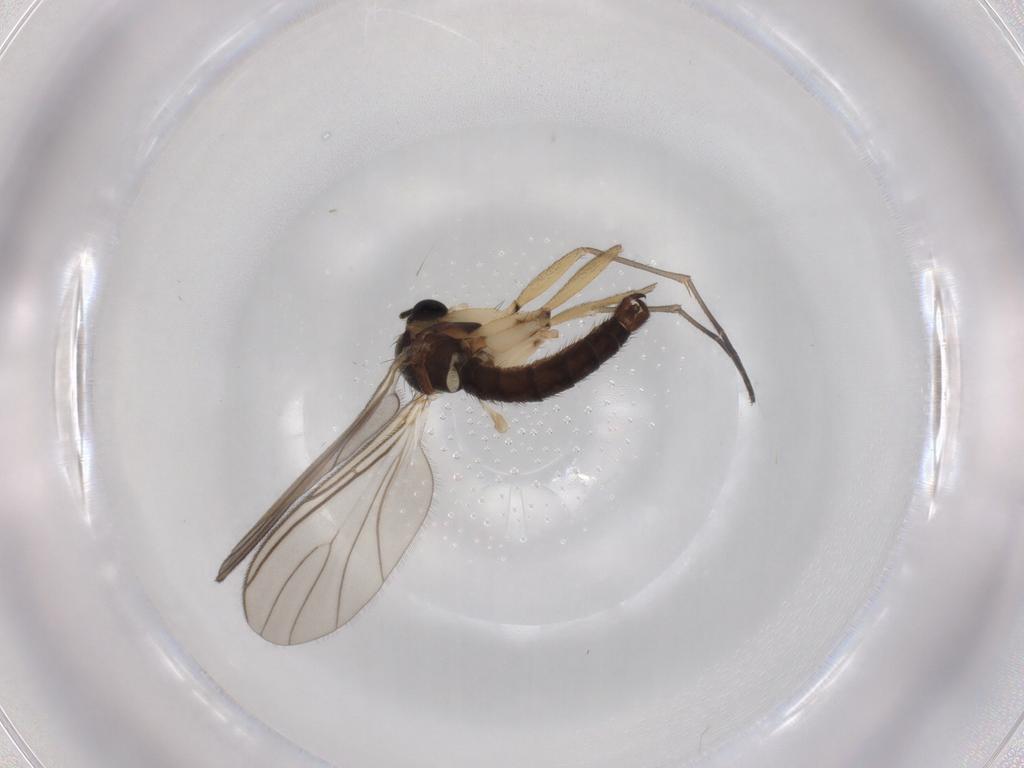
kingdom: Animalia
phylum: Arthropoda
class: Insecta
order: Diptera
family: Sciaridae
